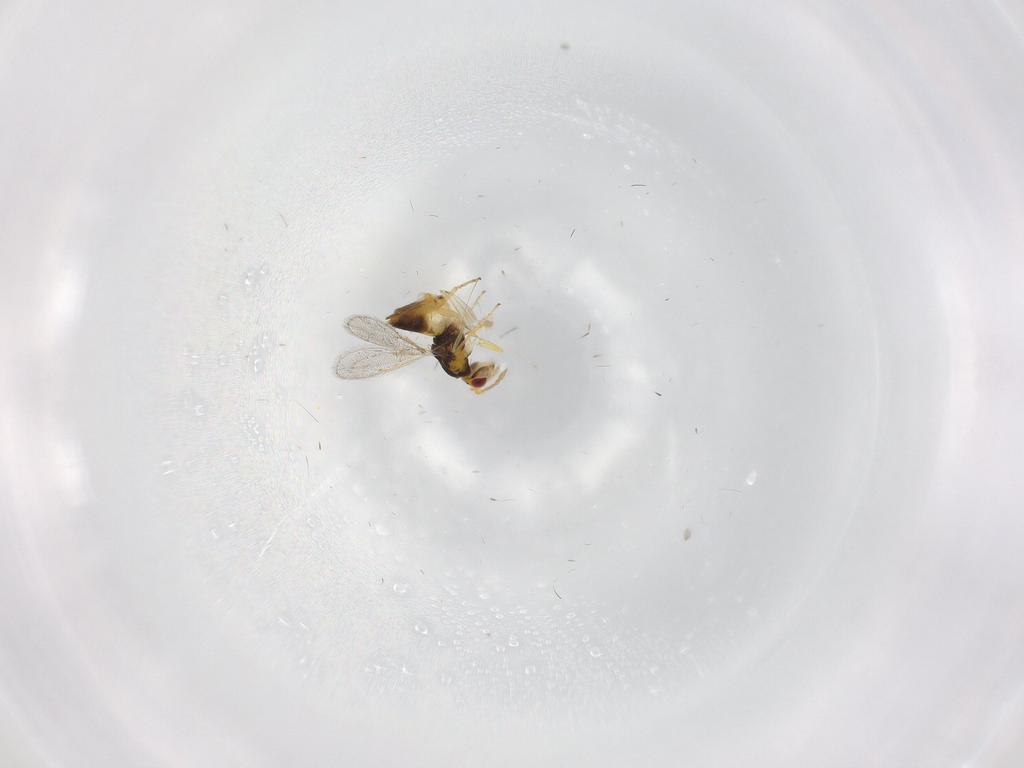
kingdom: Animalia
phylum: Arthropoda
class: Insecta
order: Hymenoptera
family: Eulophidae
